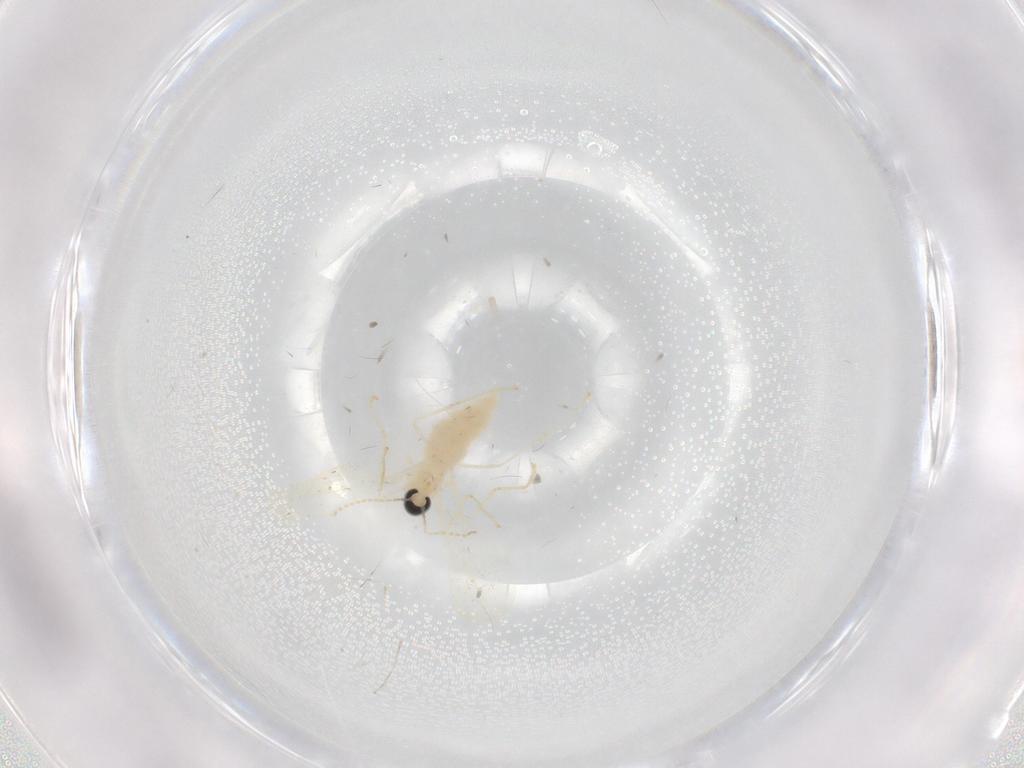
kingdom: Animalia
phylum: Arthropoda
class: Insecta
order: Diptera
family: Cecidomyiidae
